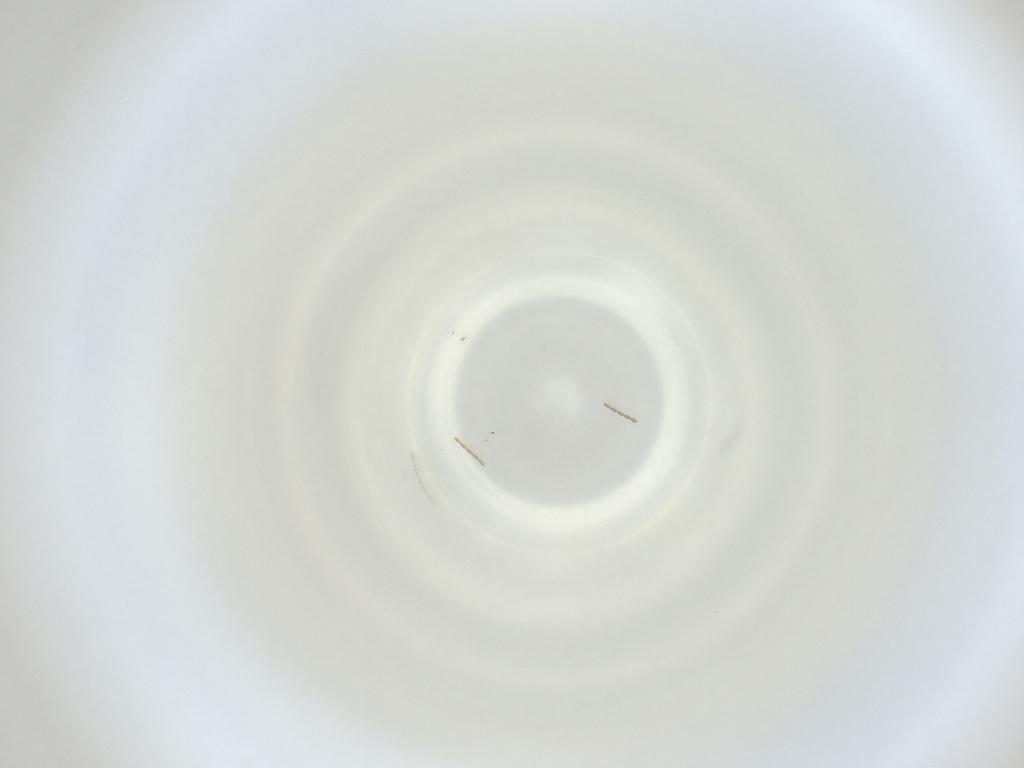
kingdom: Animalia
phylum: Arthropoda
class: Insecta
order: Diptera
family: Cecidomyiidae
